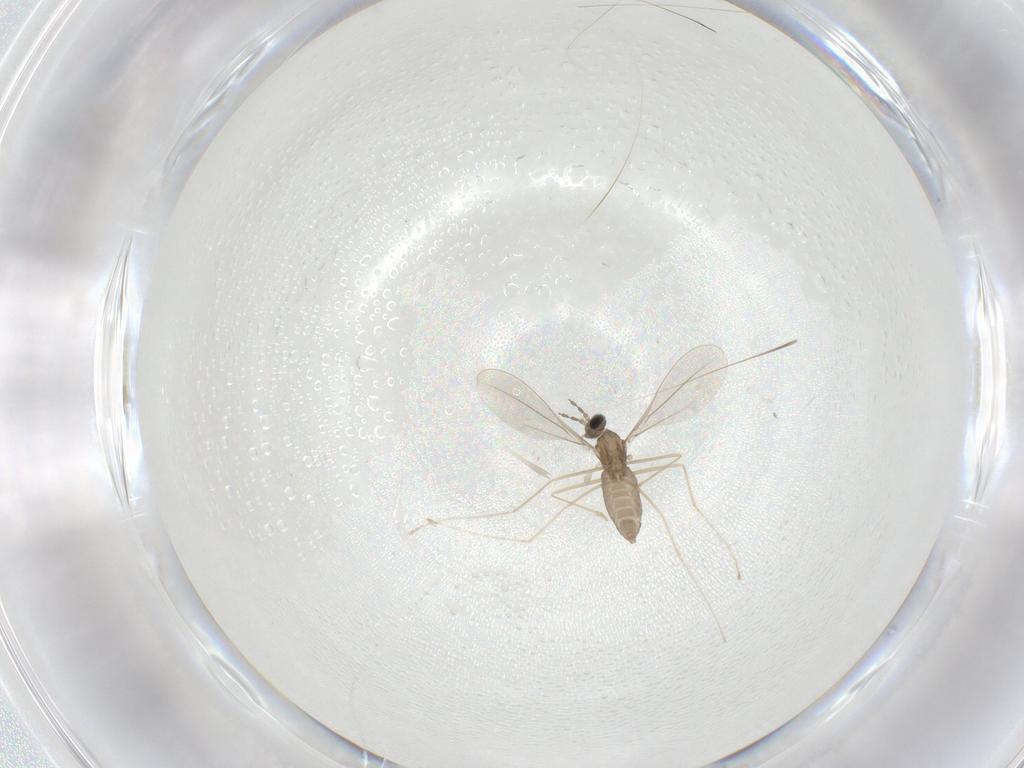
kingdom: Animalia
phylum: Arthropoda
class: Insecta
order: Diptera
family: Cecidomyiidae
